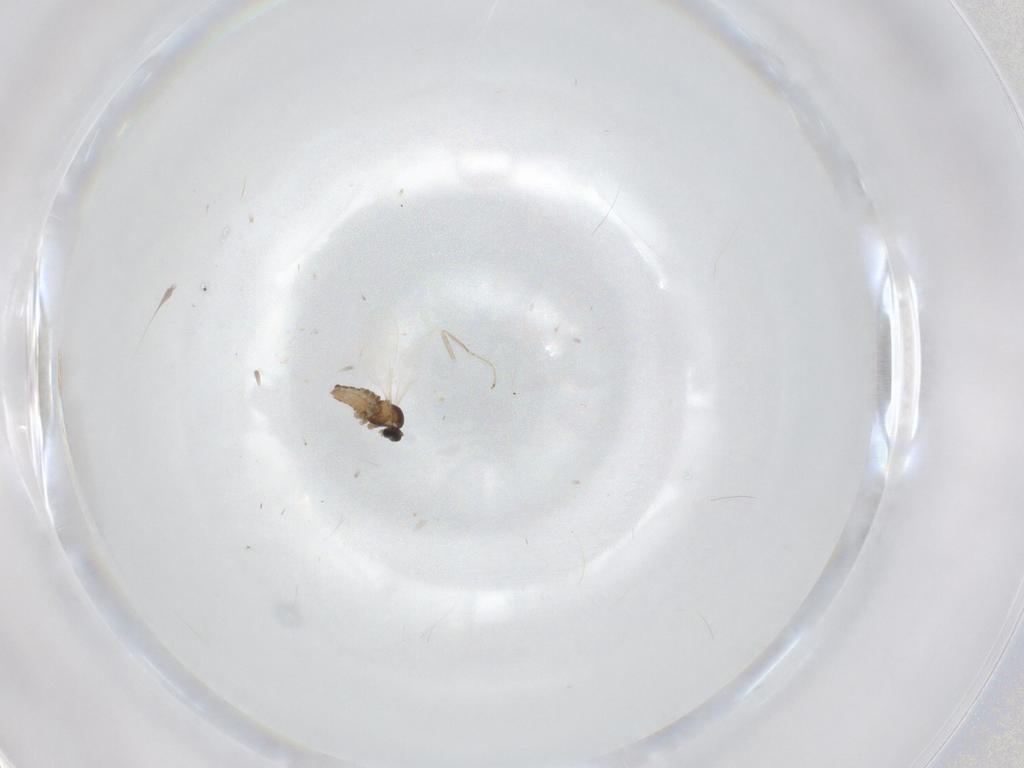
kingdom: Animalia
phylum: Arthropoda
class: Insecta
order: Diptera
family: Cecidomyiidae
